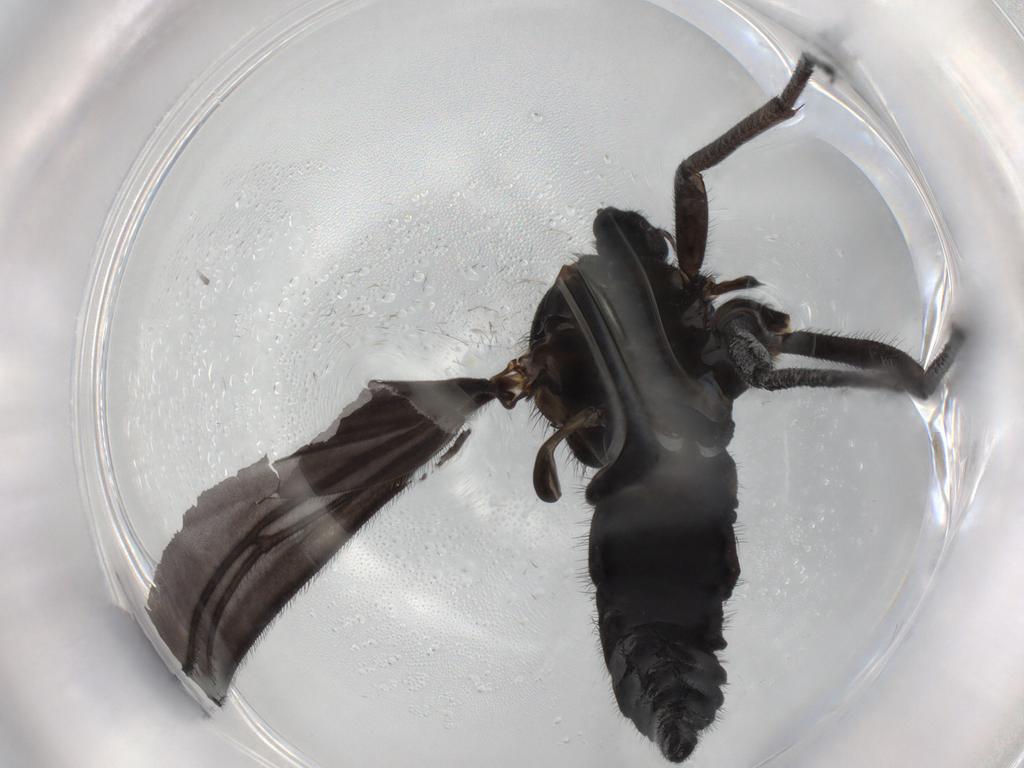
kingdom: Animalia
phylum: Arthropoda
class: Insecta
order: Diptera
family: Sciaridae
